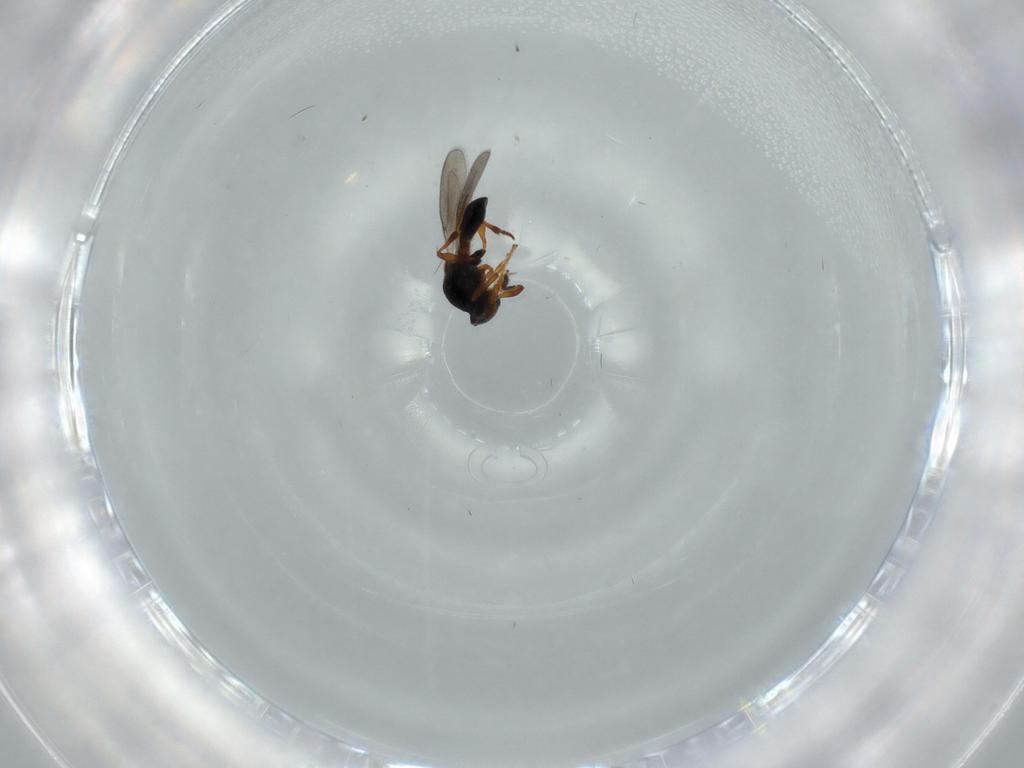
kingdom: Animalia
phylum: Arthropoda
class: Insecta
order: Hymenoptera
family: Platygastridae
